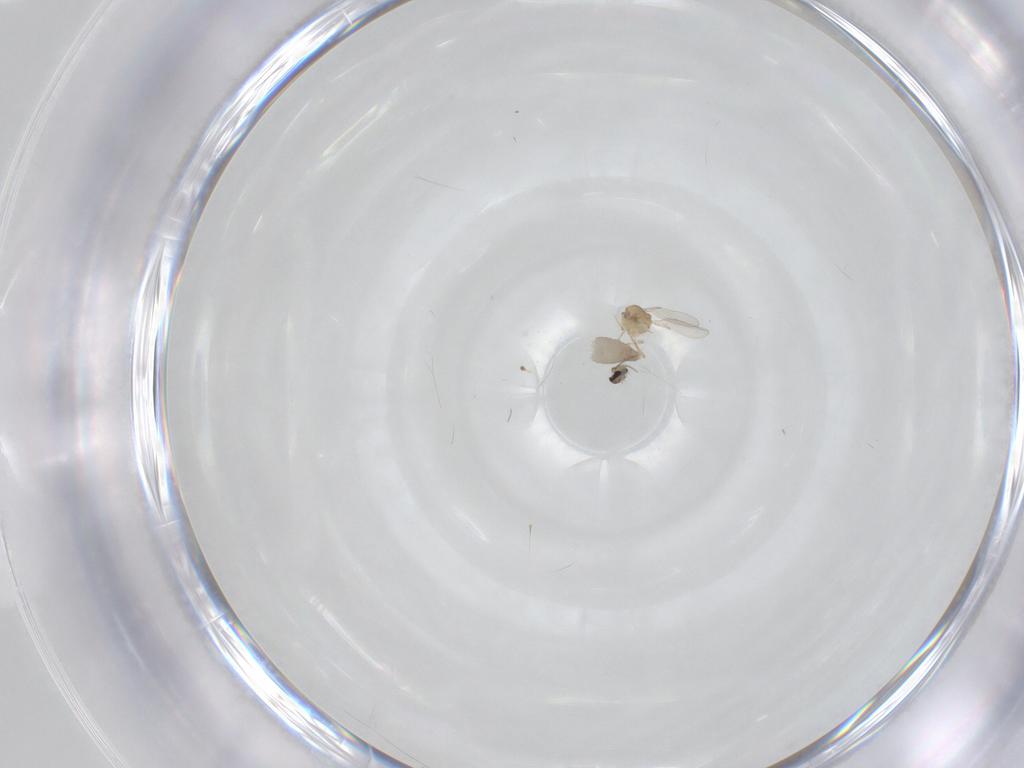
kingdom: Animalia
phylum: Arthropoda
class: Insecta
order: Diptera
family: Ceratopogonidae
